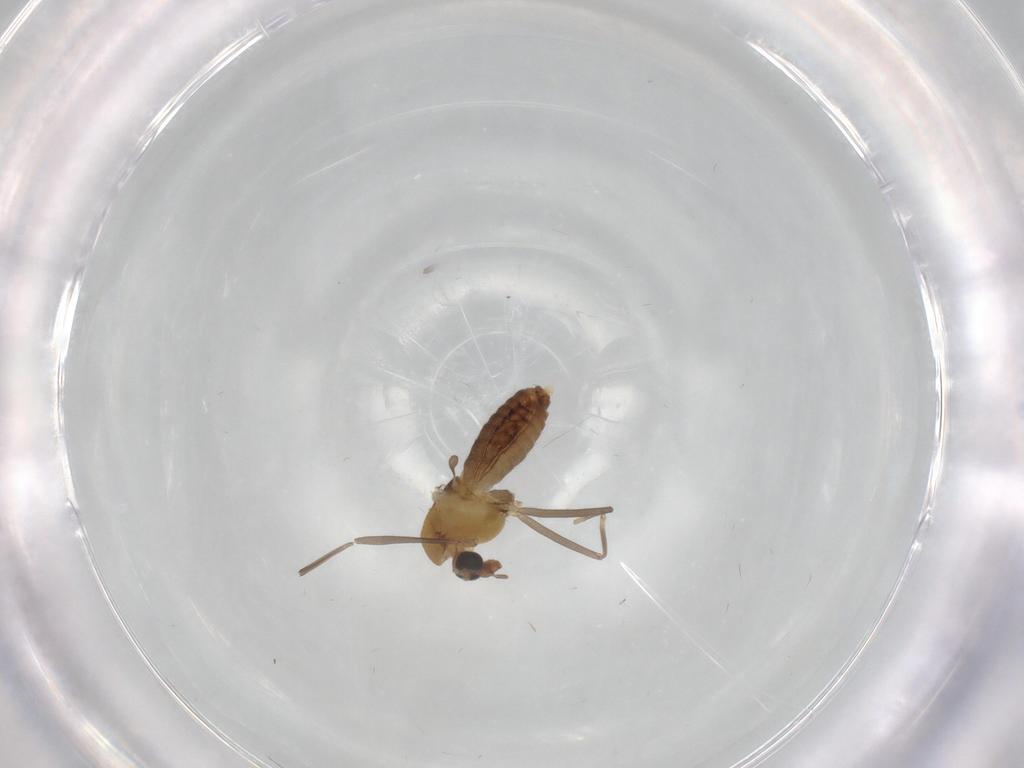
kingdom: Animalia
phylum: Arthropoda
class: Insecta
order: Diptera
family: Chironomidae
